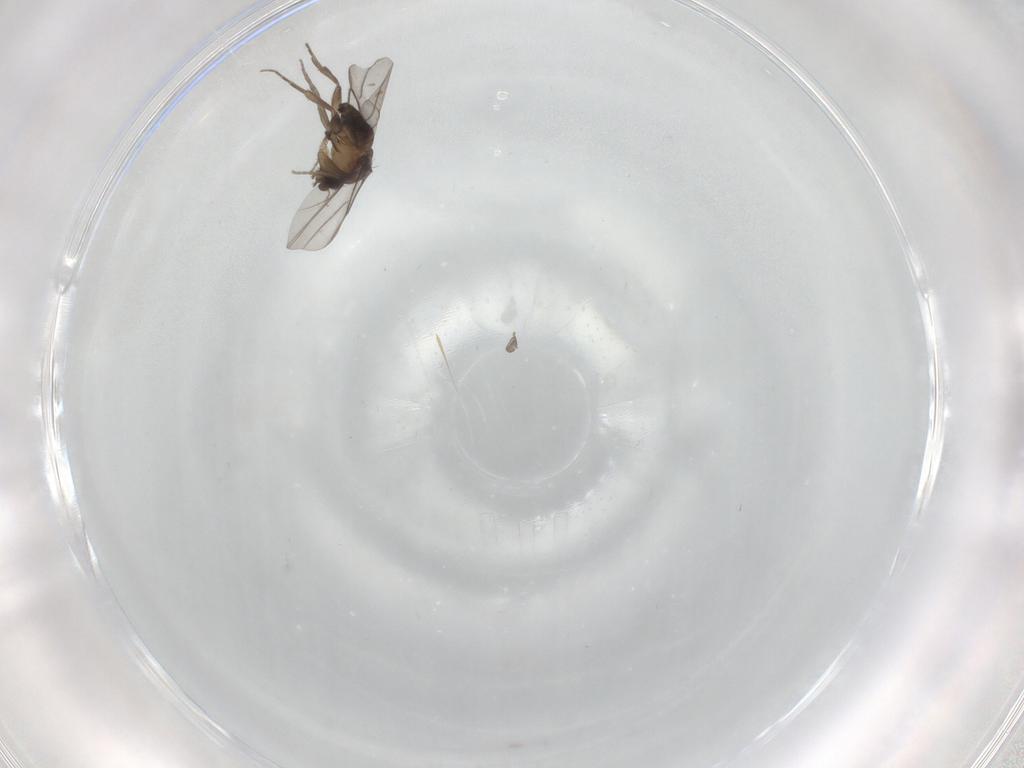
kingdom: Animalia
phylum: Arthropoda
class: Insecta
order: Diptera
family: Phoridae
